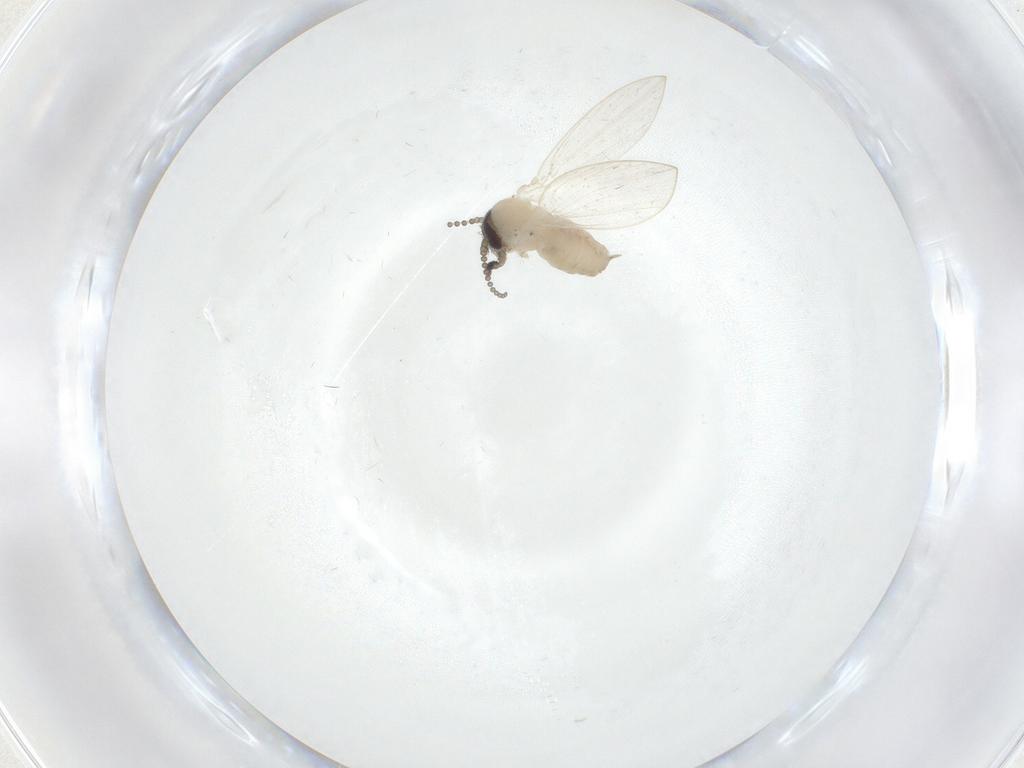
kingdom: Animalia
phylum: Arthropoda
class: Insecta
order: Diptera
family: Psychodidae
